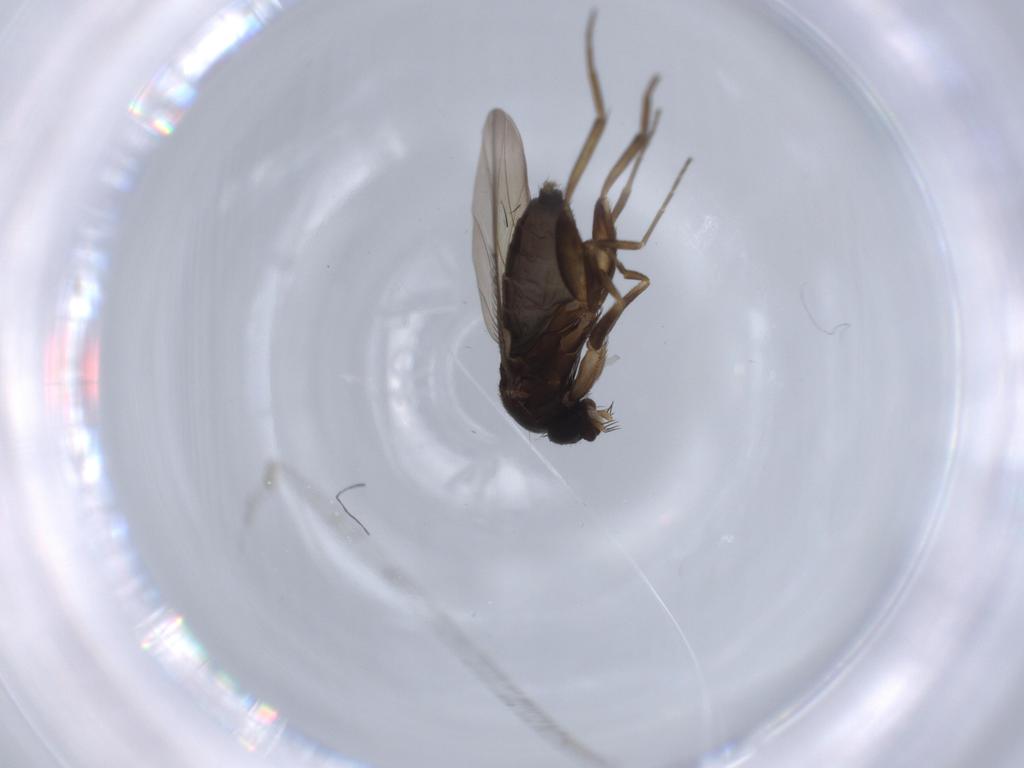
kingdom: Animalia
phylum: Arthropoda
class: Insecta
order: Diptera
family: Phoridae
